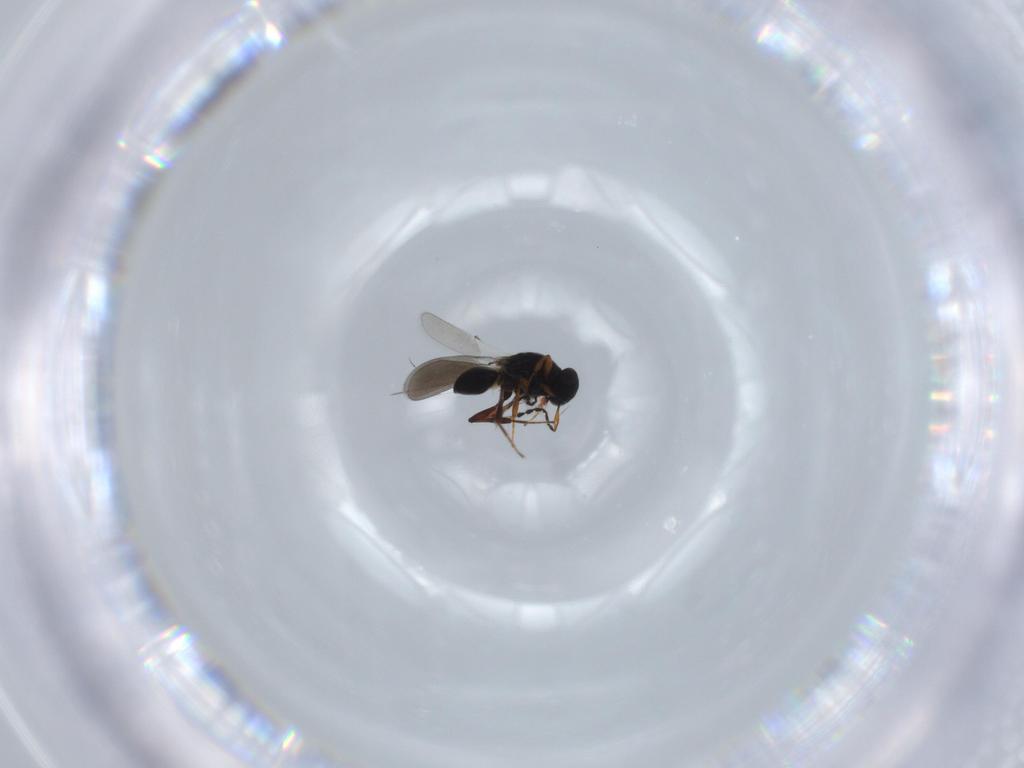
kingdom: Animalia
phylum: Arthropoda
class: Insecta
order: Hymenoptera
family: Platygastridae
